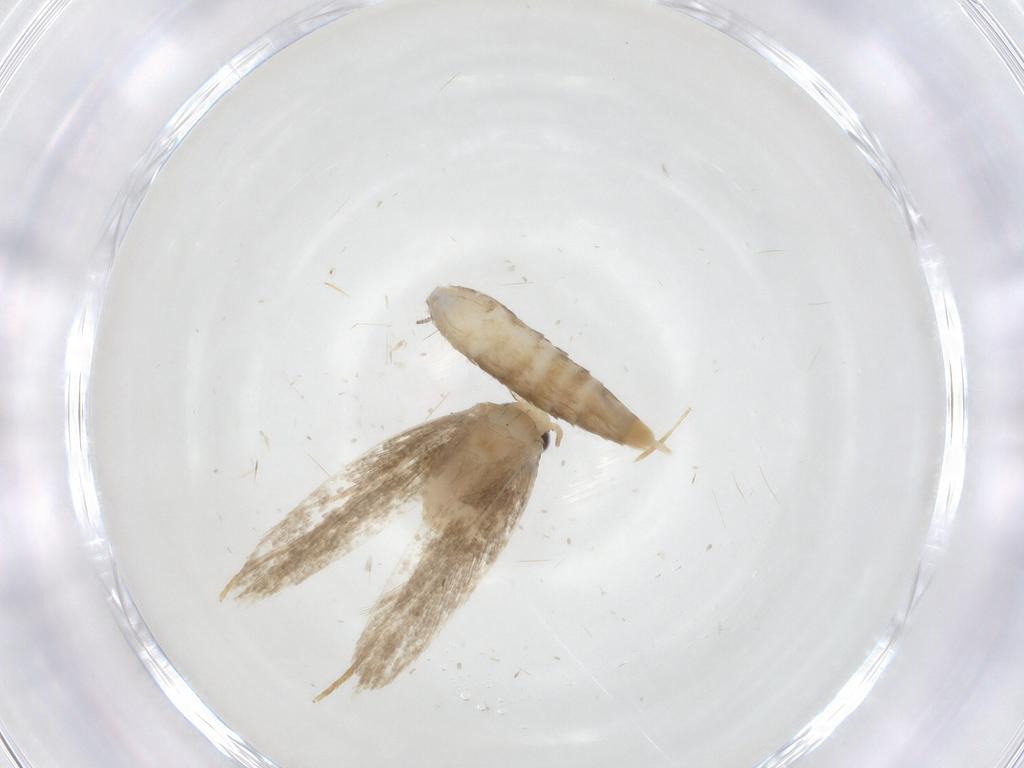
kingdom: Animalia
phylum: Arthropoda
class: Insecta
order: Lepidoptera
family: Tineidae
